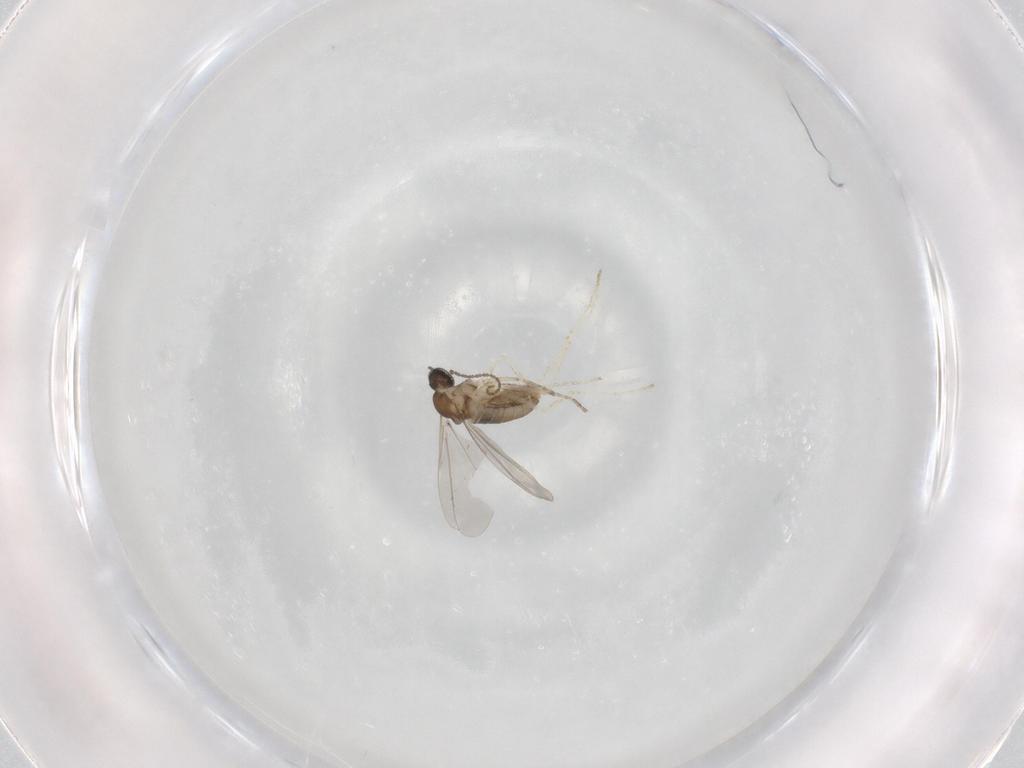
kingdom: Animalia
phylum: Arthropoda
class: Insecta
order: Diptera
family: Cecidomyiidae
